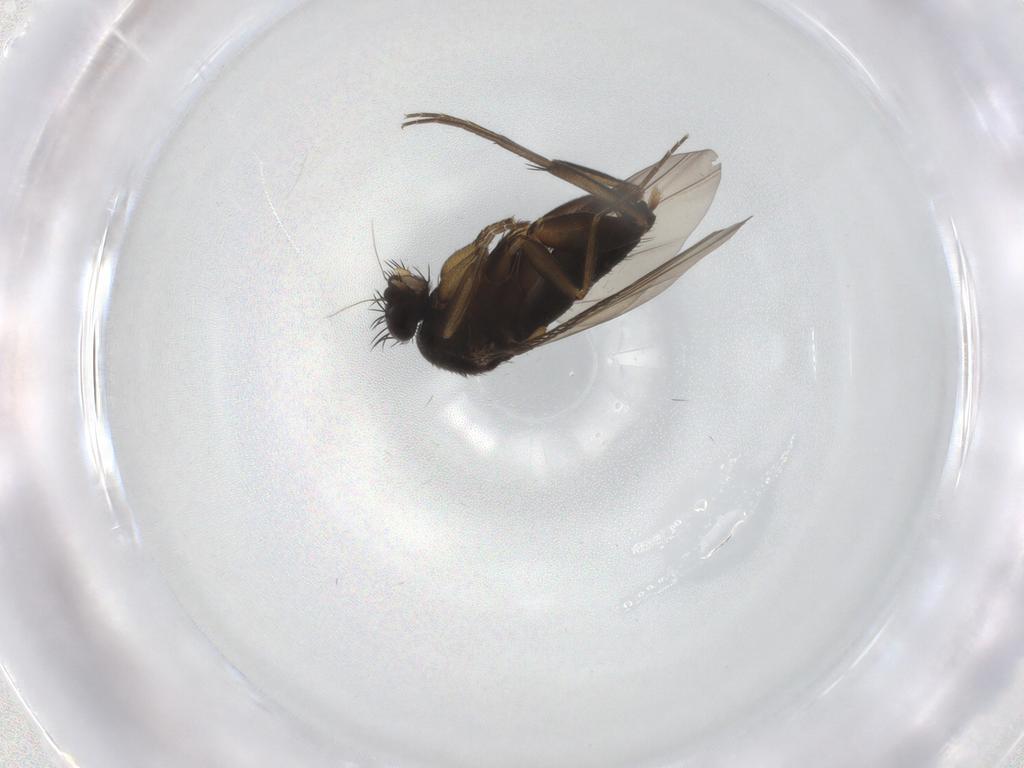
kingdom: Animalia
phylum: Arthropoda
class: Insecta
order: Diptera
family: Phoridae
